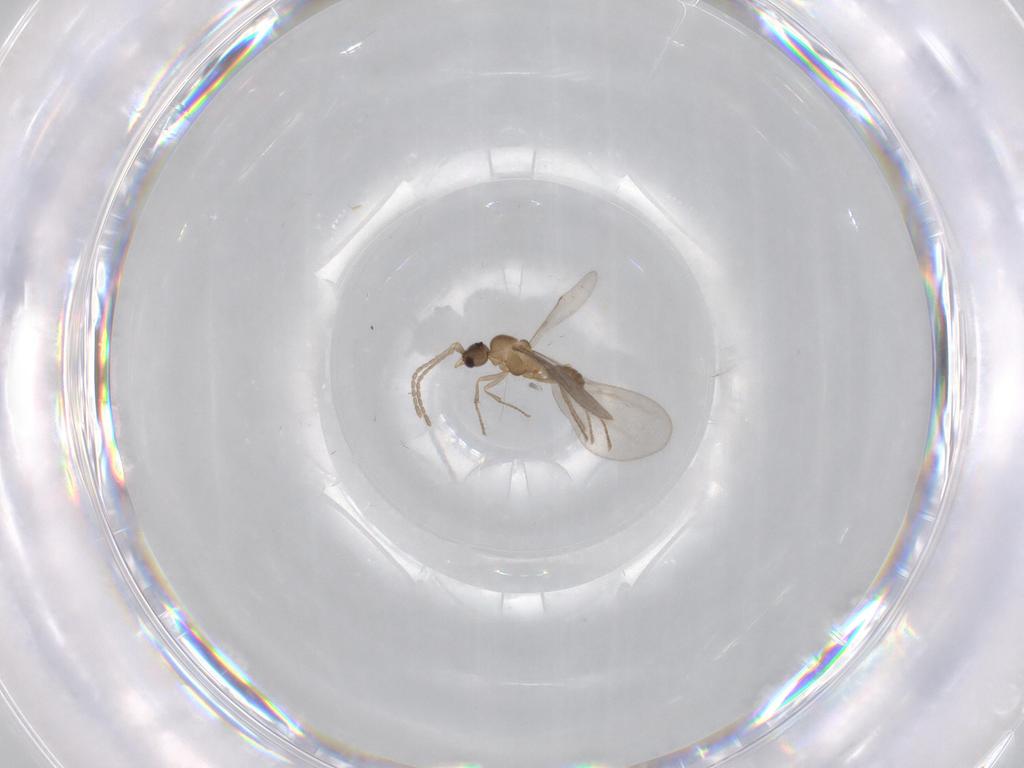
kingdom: Animalia
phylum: Arthropoda
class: Insecta
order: Hymenoptera
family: Formicidae
